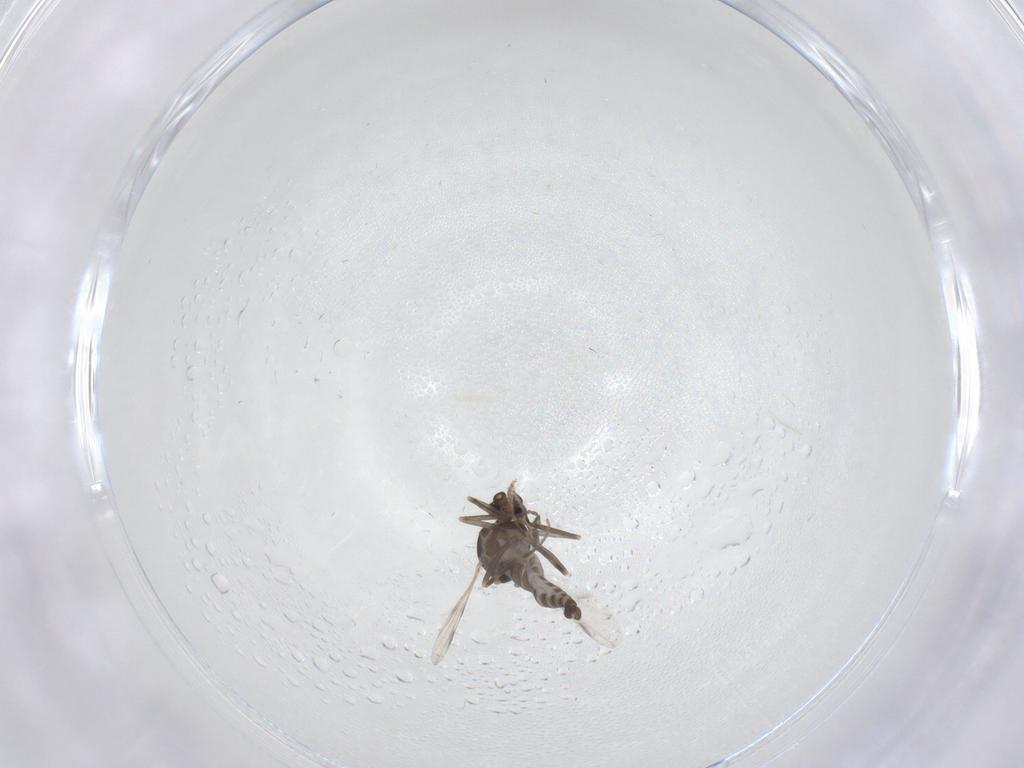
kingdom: Animalia
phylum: Arthropoda
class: Insecta
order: Diptera
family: Ceratopogonidae
